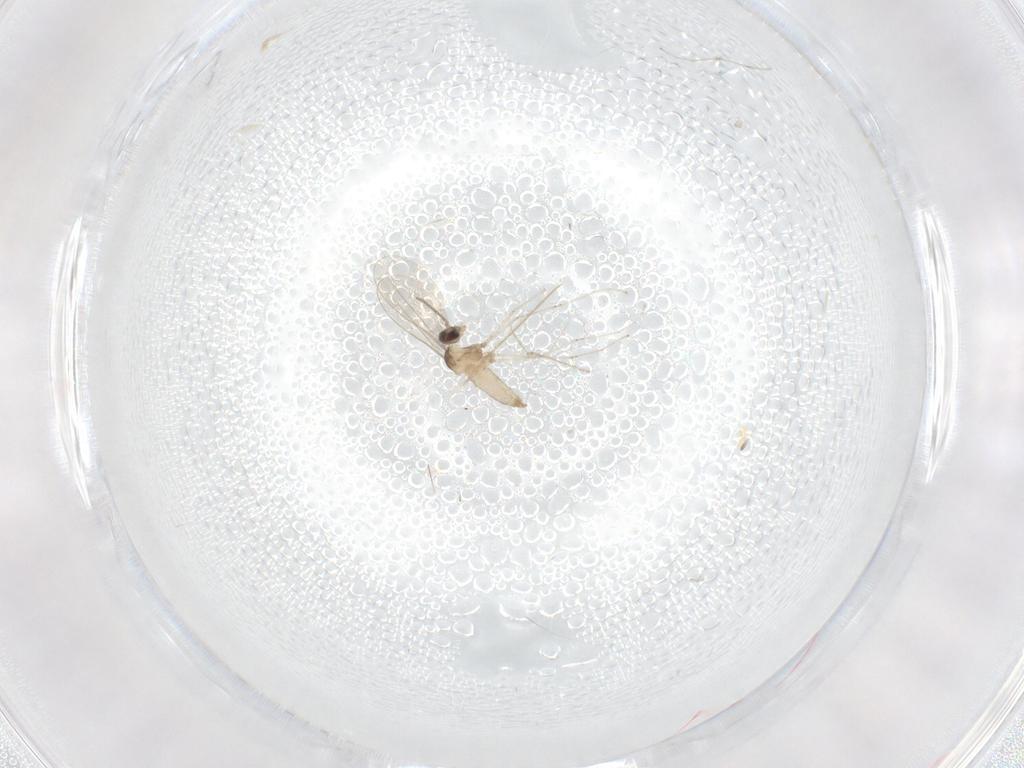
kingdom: Animalia
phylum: Arthropoda
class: Insecta
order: Diptera
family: Cecidomyiidae
